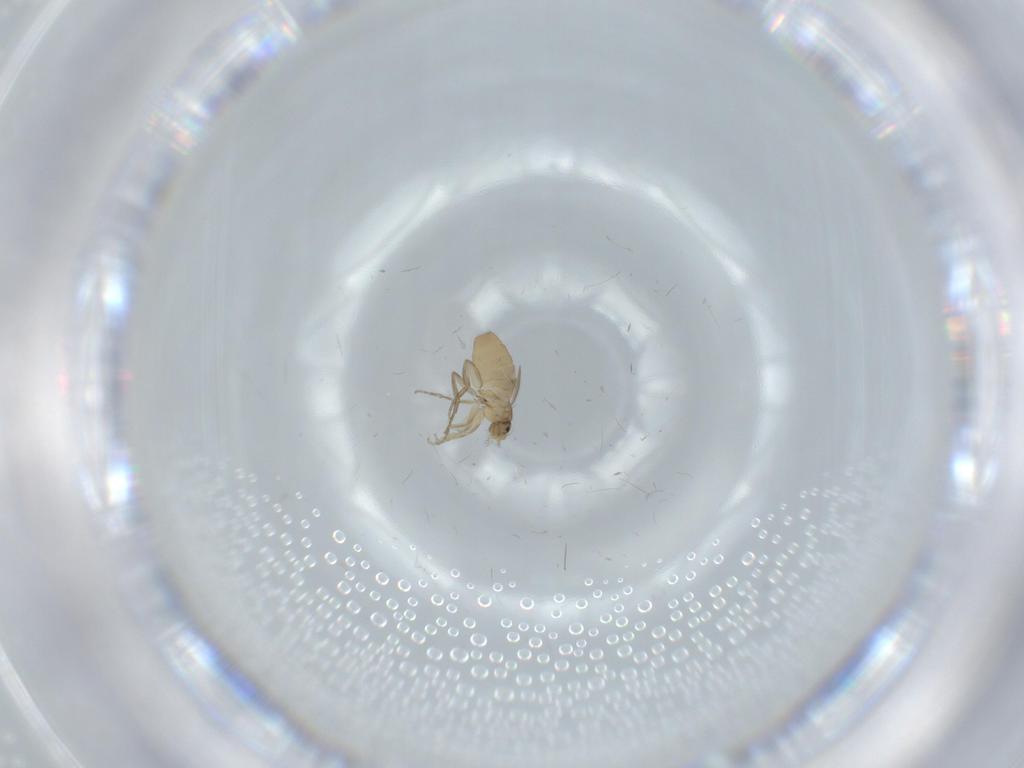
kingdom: Animalia
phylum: Arthropoda
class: Insecta
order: Diptera
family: Phoridae
